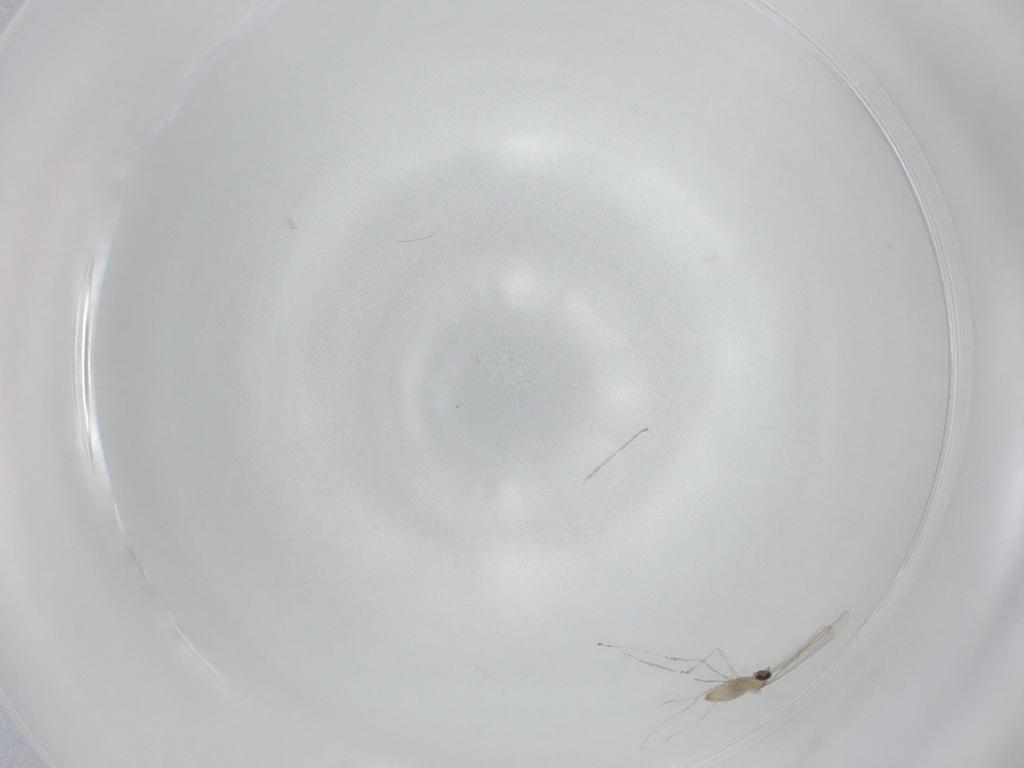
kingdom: Animalia
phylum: Arthropoda
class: Insecta
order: Diptera
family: Cecidomyiidae
